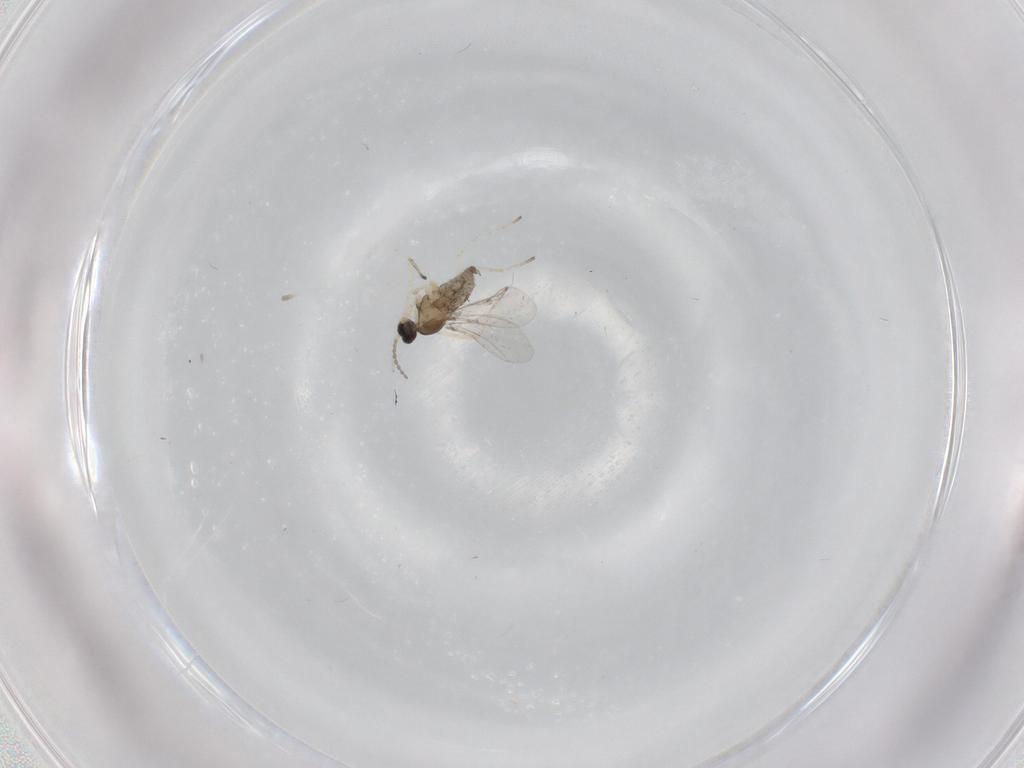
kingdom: Animalia
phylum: Arthropoda
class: Insecta
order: Diptera
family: Cecidomyiidae
